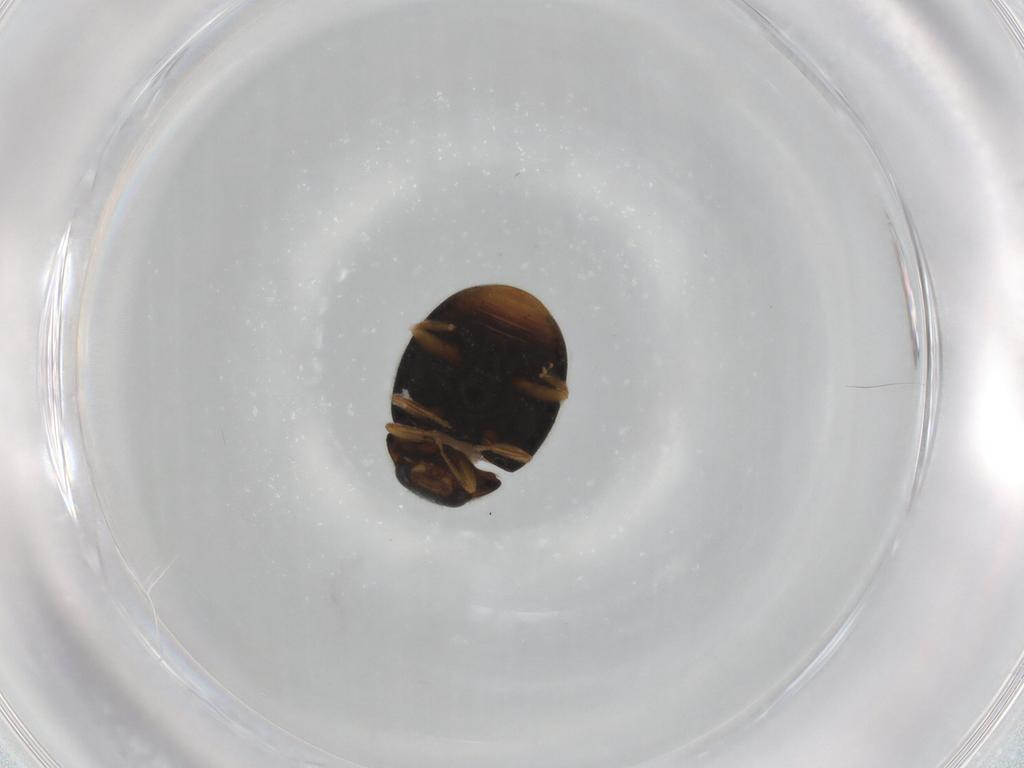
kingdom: Animalia
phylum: Arthropoda
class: Insecta
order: Coleoptera
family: Coccinellidae
